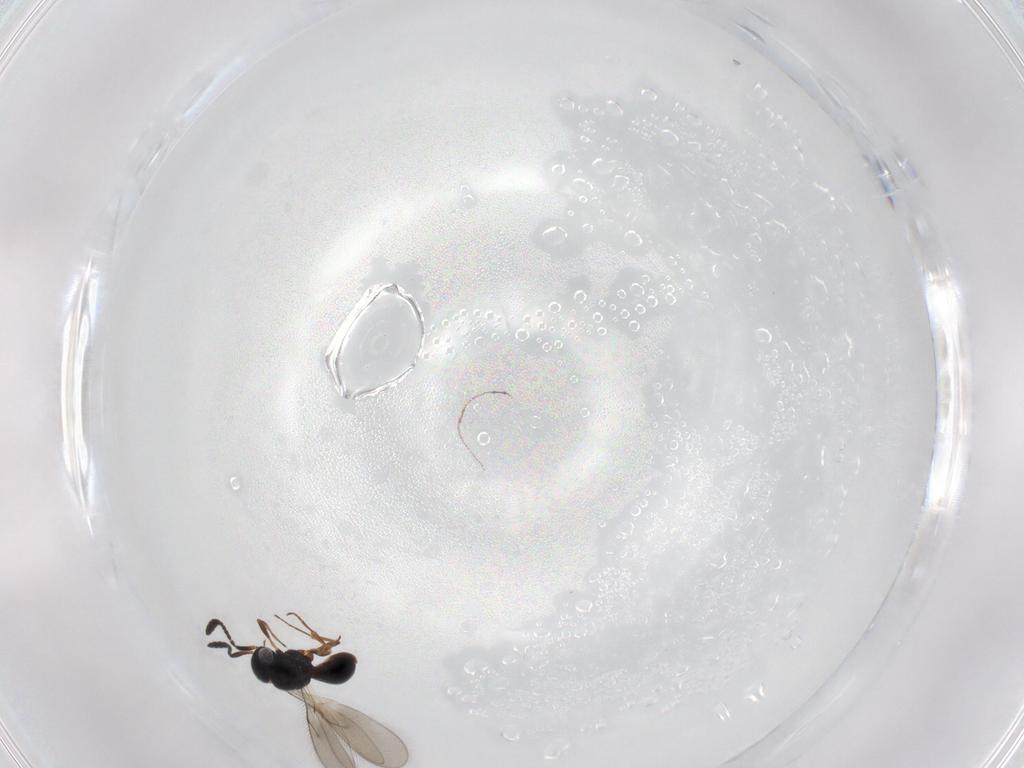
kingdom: Animalia
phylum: Arthropoda
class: Insecta
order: Hymenoptera
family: Scelionidae
